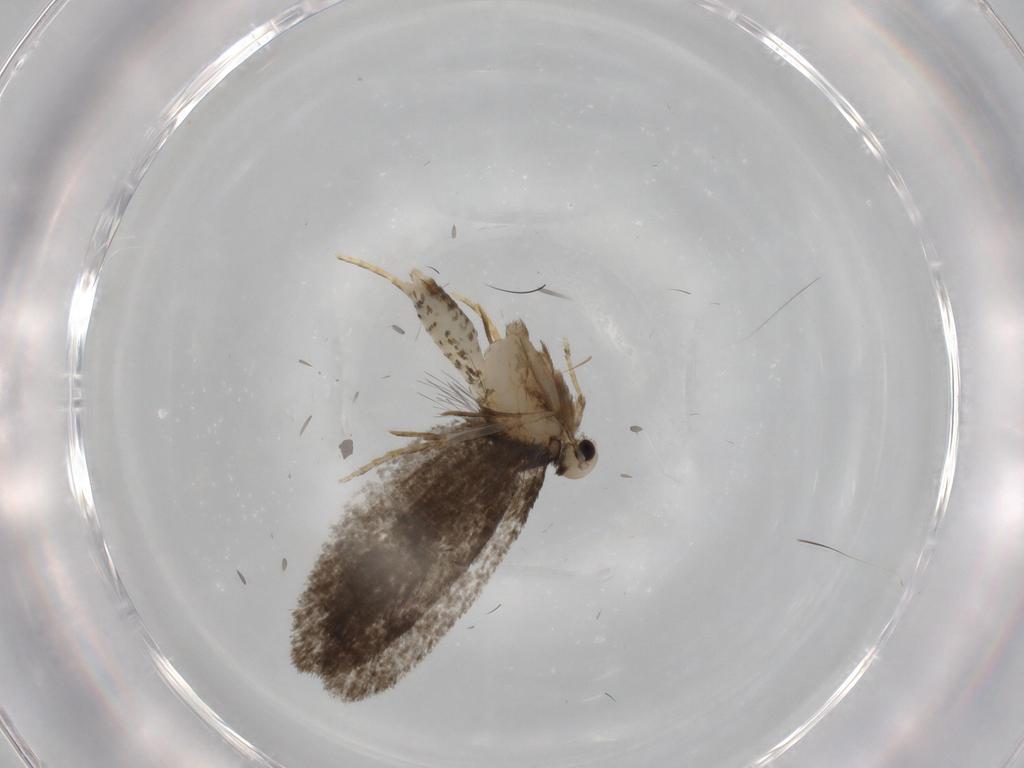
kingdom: Animalia
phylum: Arthropoda
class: Insecta
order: Lepidoptera
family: Psychidae
